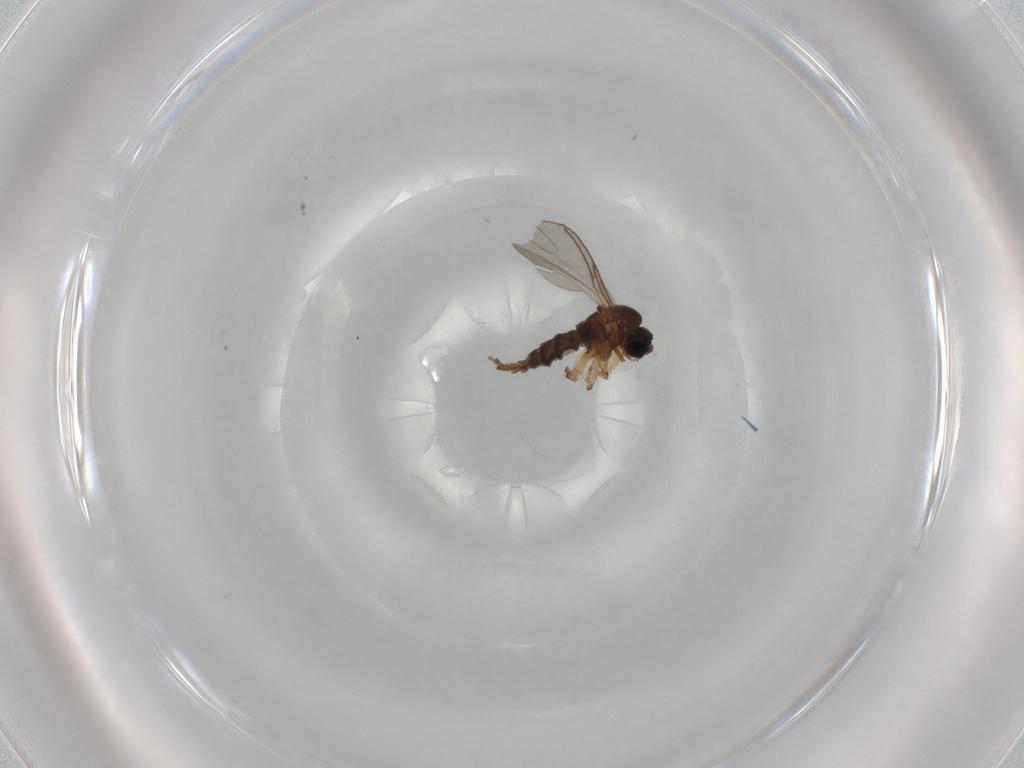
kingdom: Animalia
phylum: Arthropoda
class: Insecta
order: Diptera
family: Sciaridae
